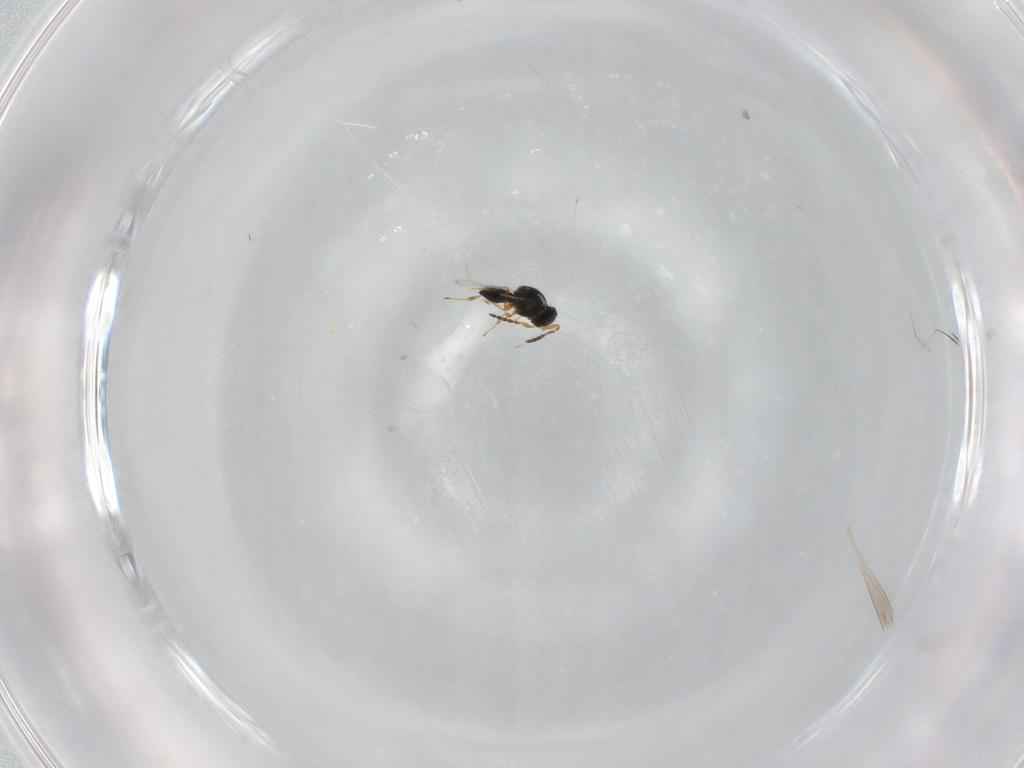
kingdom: Animalia
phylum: Arthropoda
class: Insecta
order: Hymenoptera
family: Platygastridae
